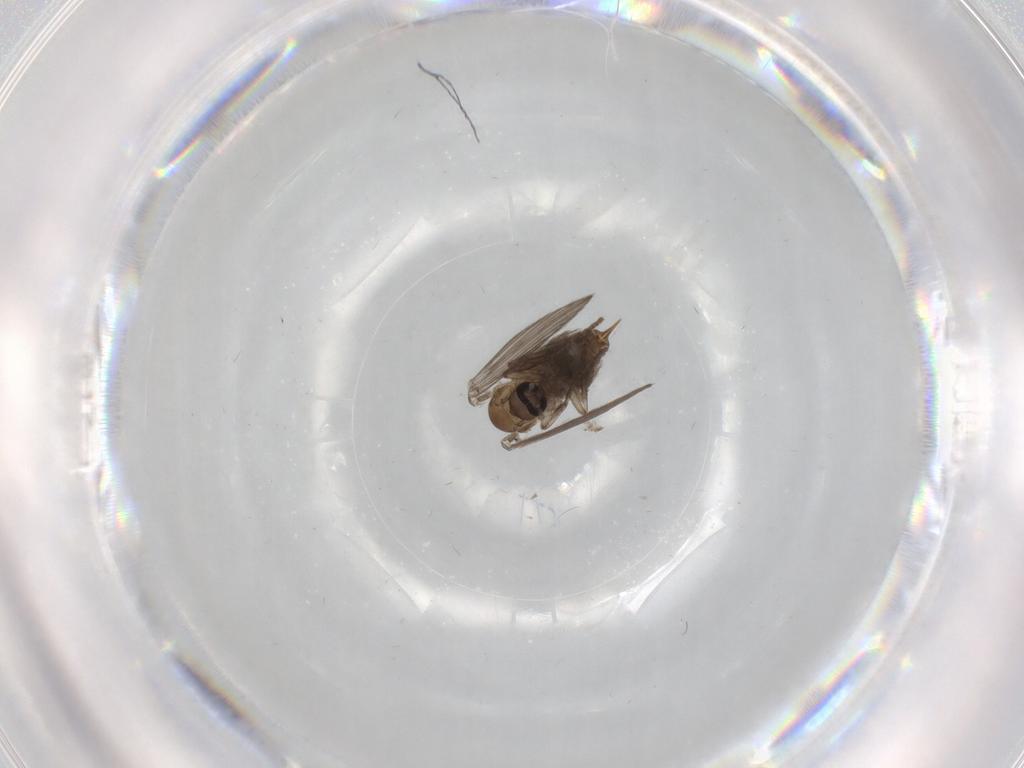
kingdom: Animalia
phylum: Arthropoda
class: Insecta
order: Diptera
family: Psychodidae
